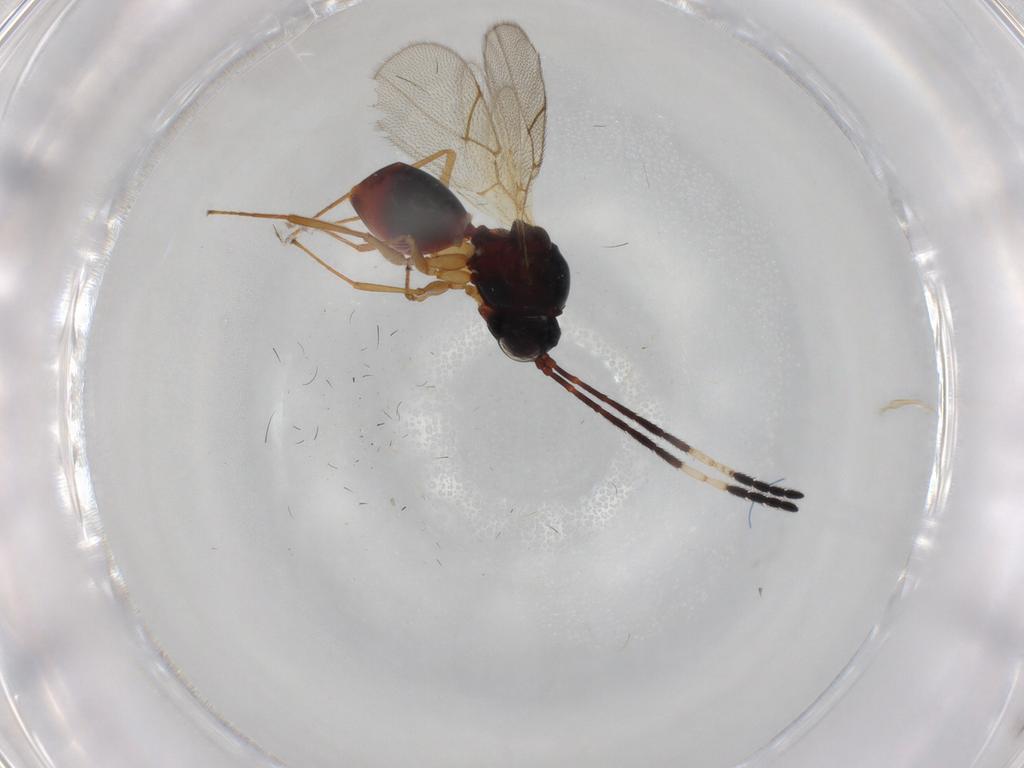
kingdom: Animalia
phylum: Arthropoda
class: Insecta
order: Hymenoptera
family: Figitidae
